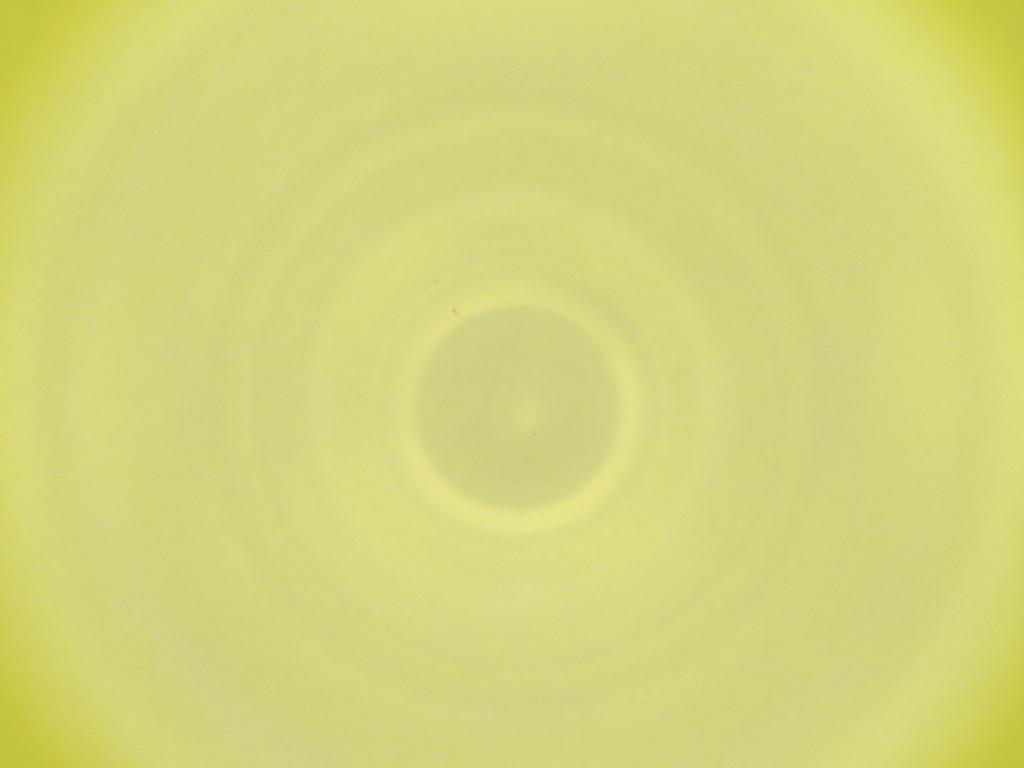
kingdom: Animalia
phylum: Arthropoda
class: Insecta
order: Diptera
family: Cecidomyiidae
